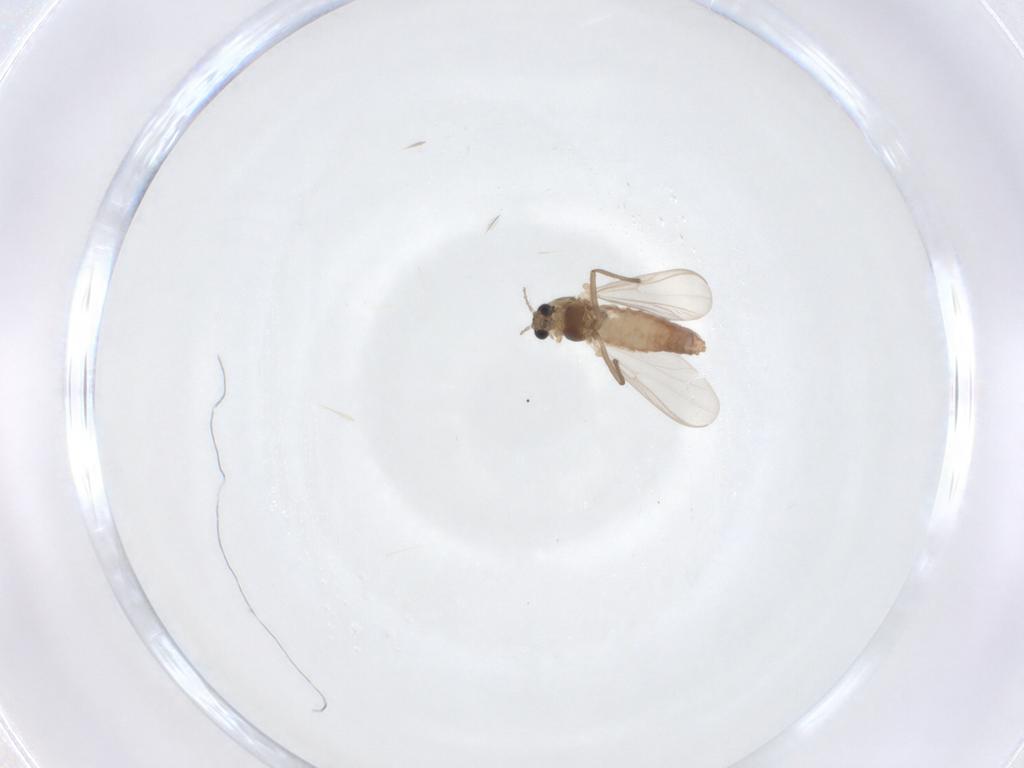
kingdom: Animalia
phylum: Arthropoda
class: Insecta
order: Diptera
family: Chironomidae
